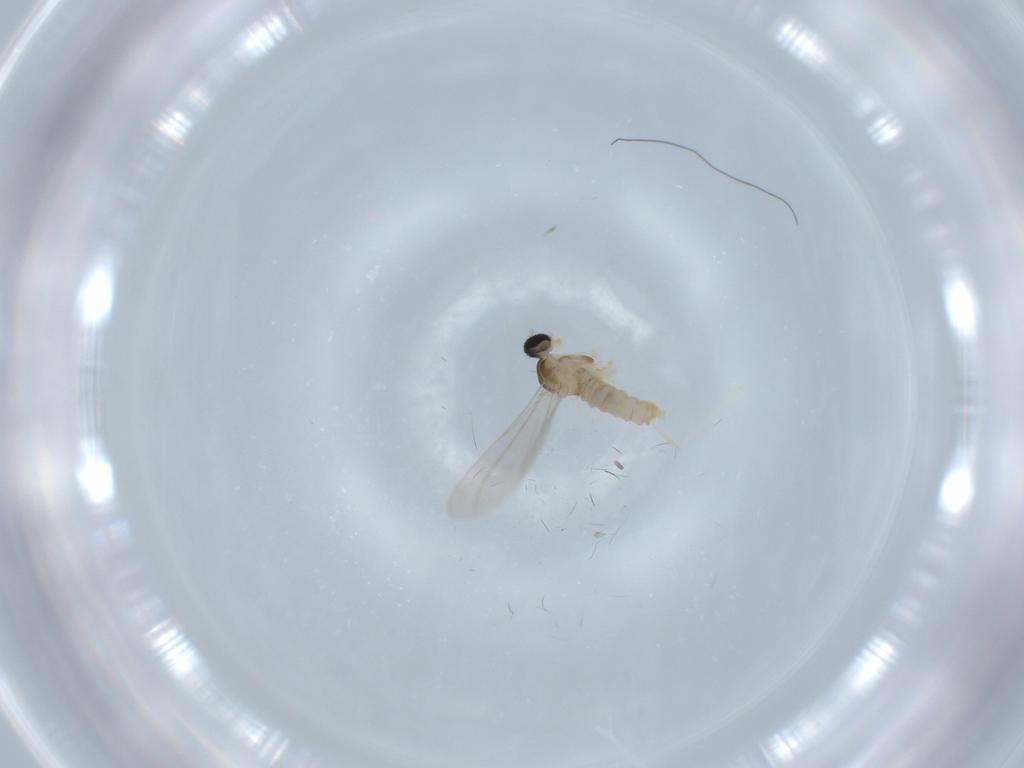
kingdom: Animalia
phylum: Arthropoda
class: Insecta
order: Diptera
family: Cecidomyiidae
